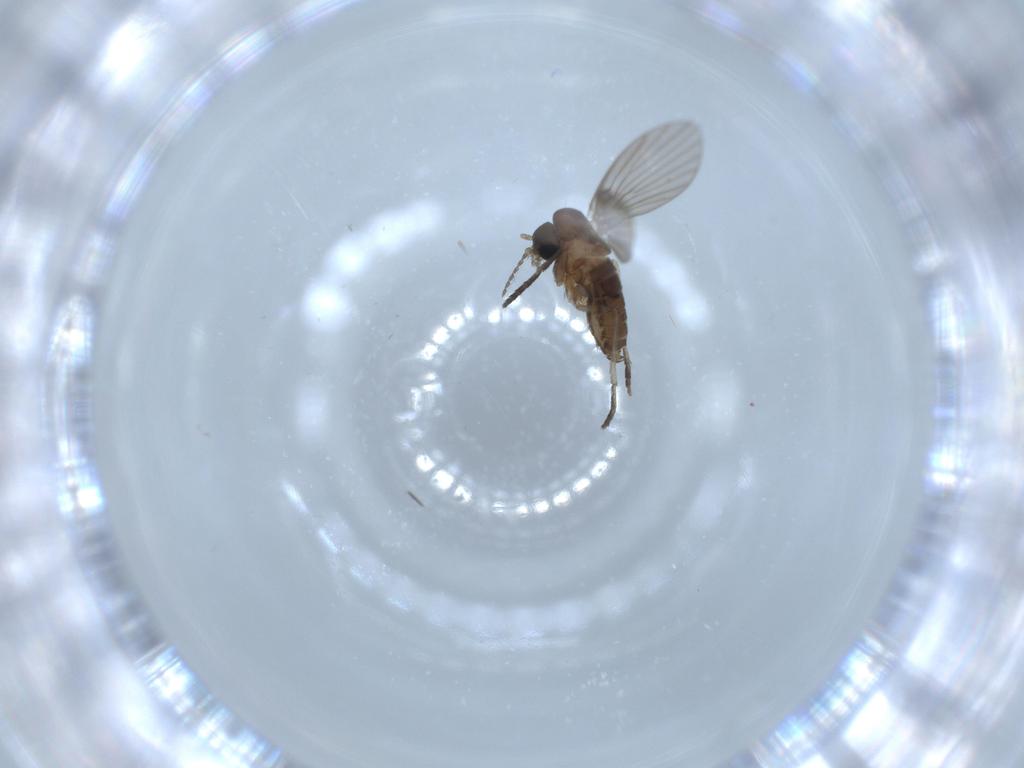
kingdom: Animalia
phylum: Arthropoda
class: Insecta
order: Diptera
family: Psychodidae
